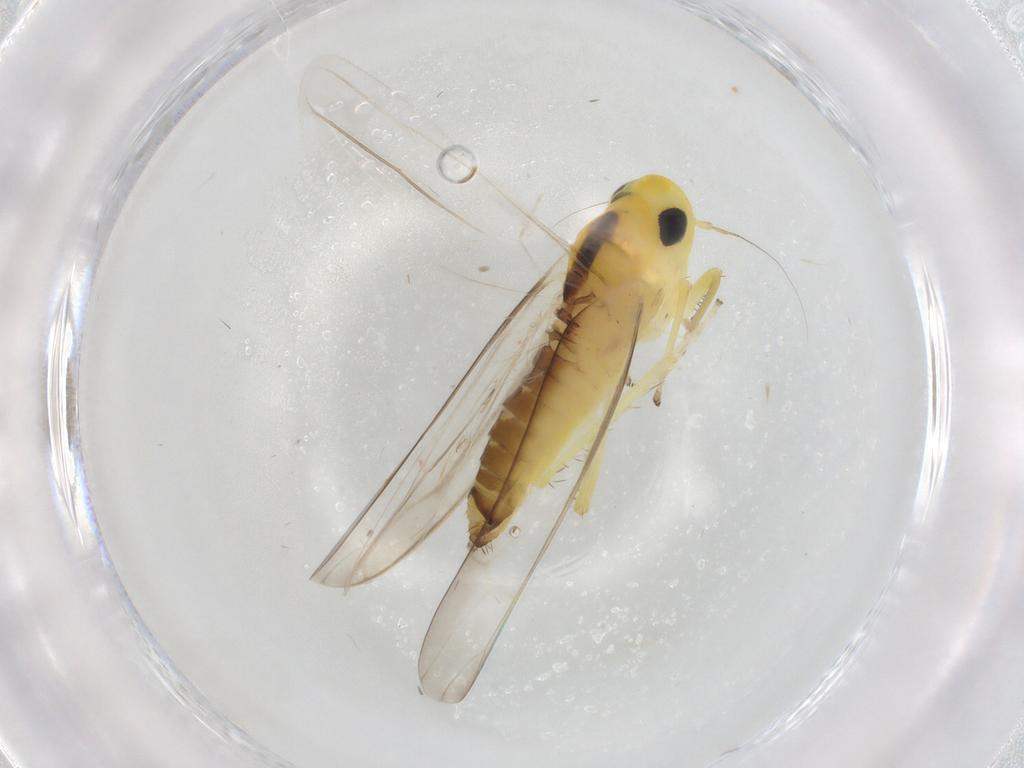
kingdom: Animalia
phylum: Arthropoda
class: Insecta
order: Hemiptera
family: Cicadellidae
